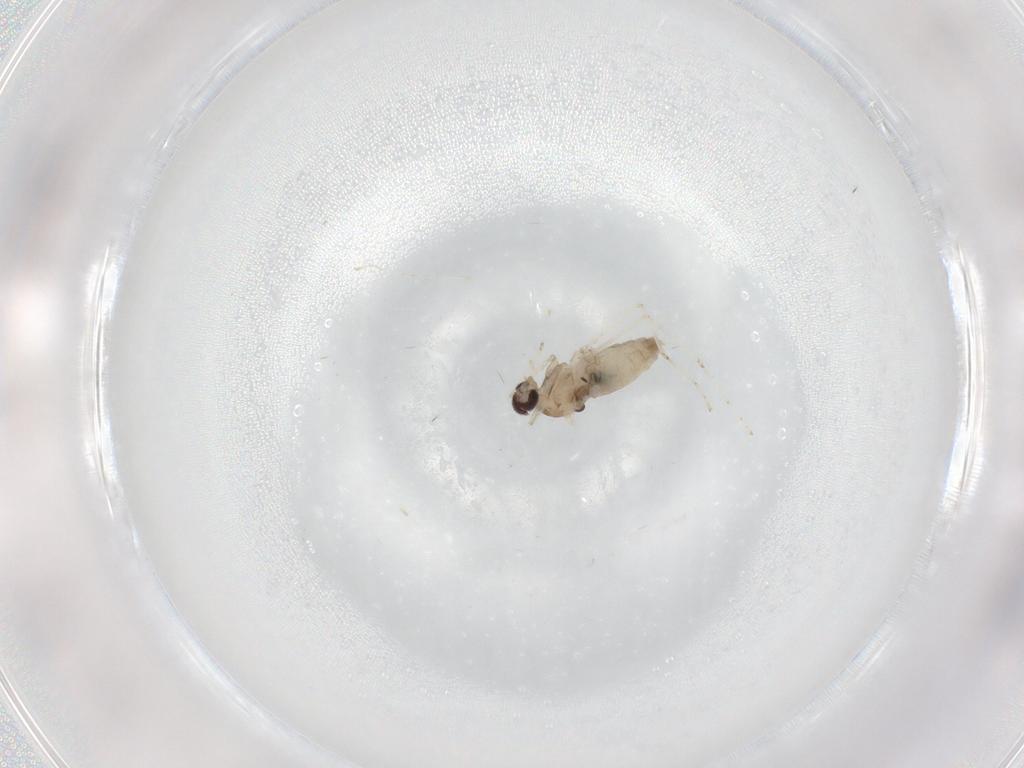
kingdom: Animalia
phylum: Arthropoda
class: Insecta
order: Diptera
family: Cecidomyiidae
